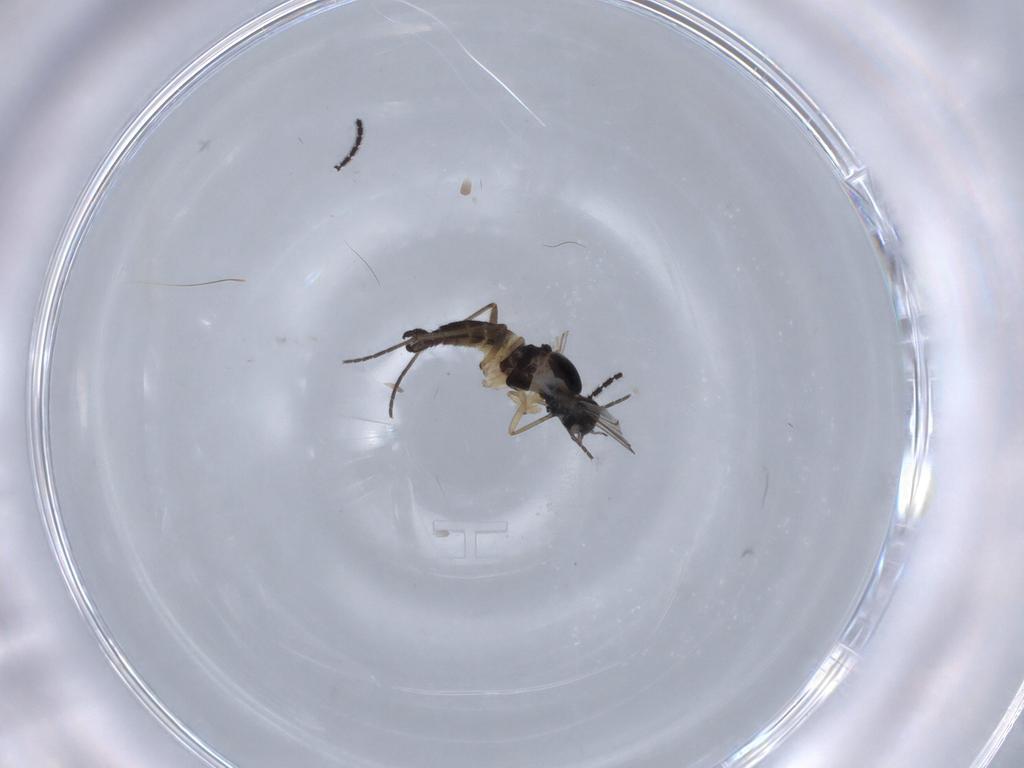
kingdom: Animalia
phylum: Arthropoda
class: Insecta
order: Diptera
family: Sciaridae
